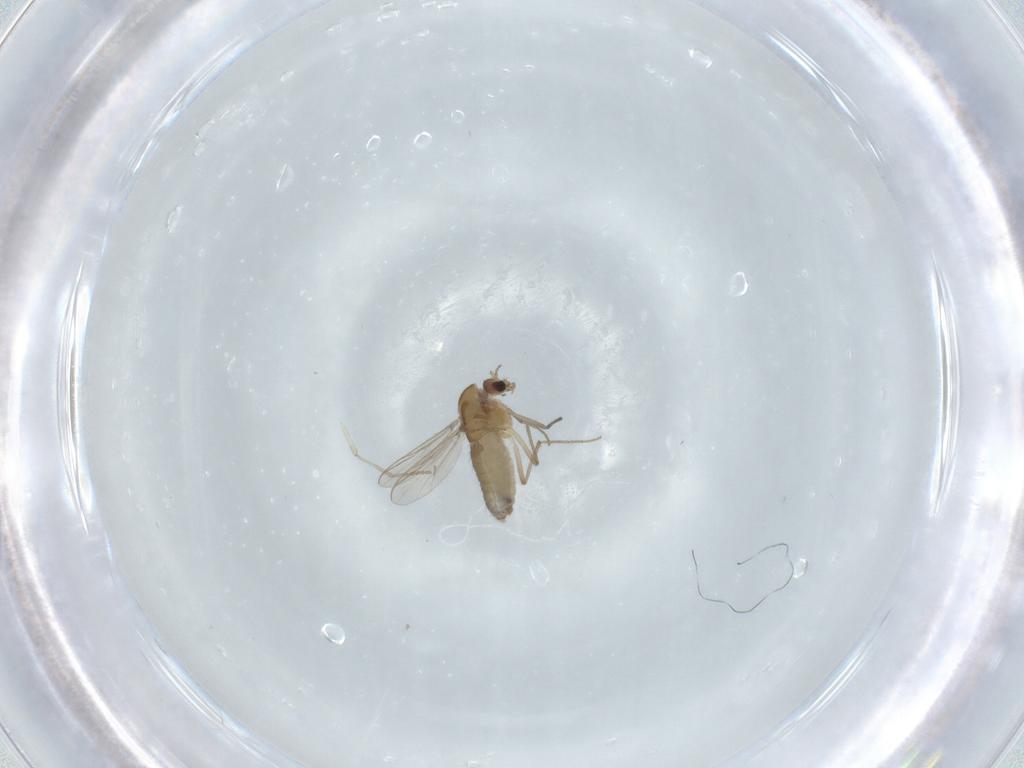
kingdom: Animalia
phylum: Arthropoda
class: Insecta
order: Diptera
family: Chironomidae
